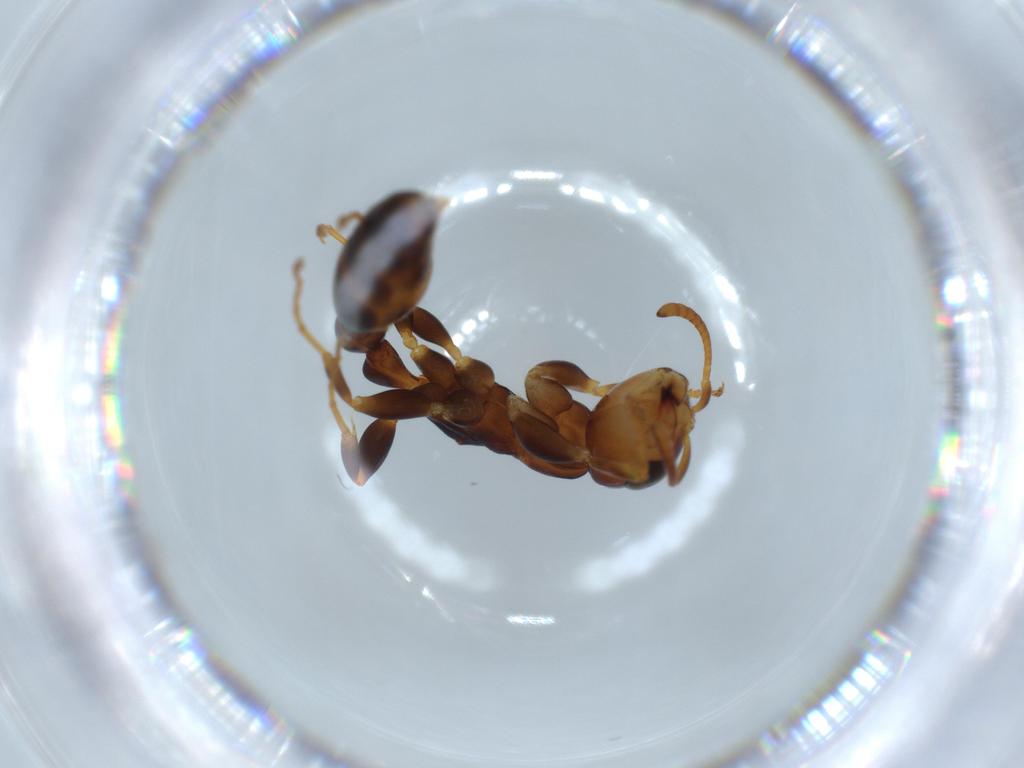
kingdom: Animalia
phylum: Arthropoda
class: Insecta
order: Hymenoptera
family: Formicidae
